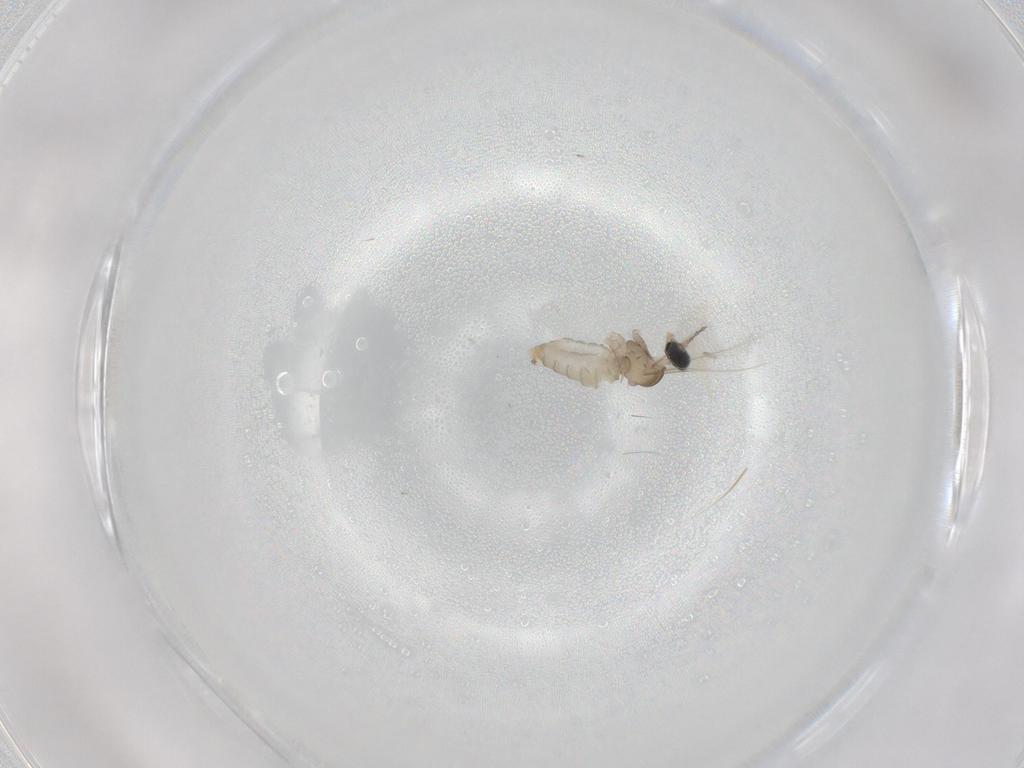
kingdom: Animalia
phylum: Arthropoda
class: Insecta
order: Diptera
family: Cecidomyiidae
